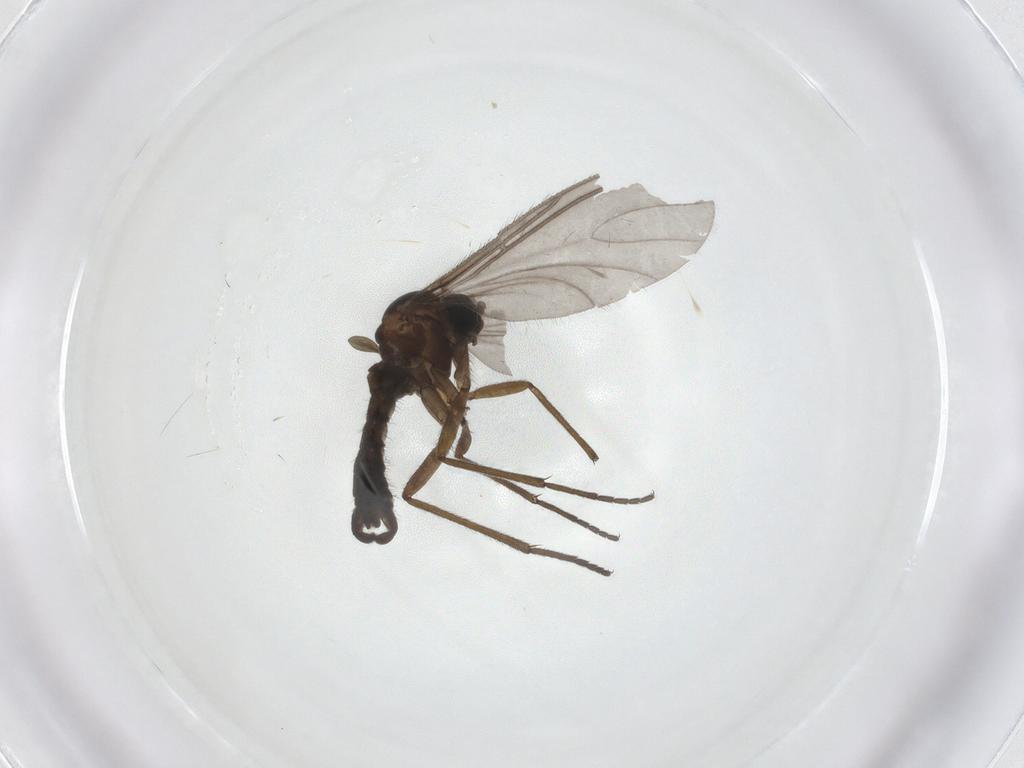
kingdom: Animalia
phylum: Arthropoda
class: Insecta
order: Diptera
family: Sciaridae
